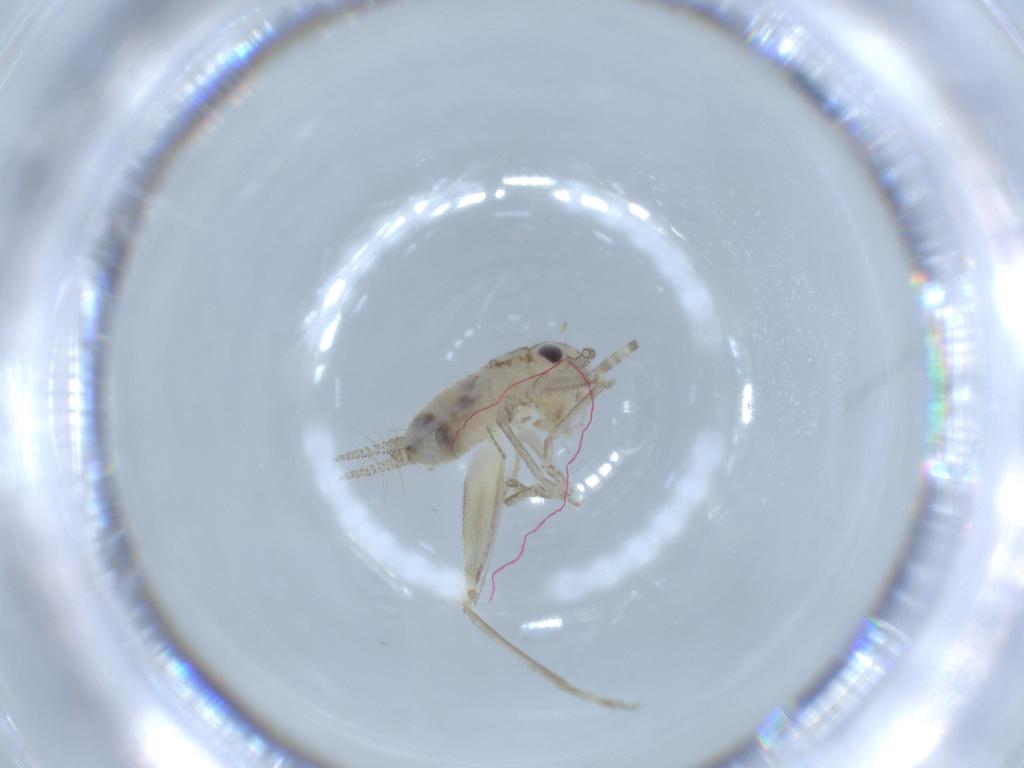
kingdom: Animalia
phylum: Arthropoda
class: Insecta
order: Orthoptera
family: Trigonidiidae
